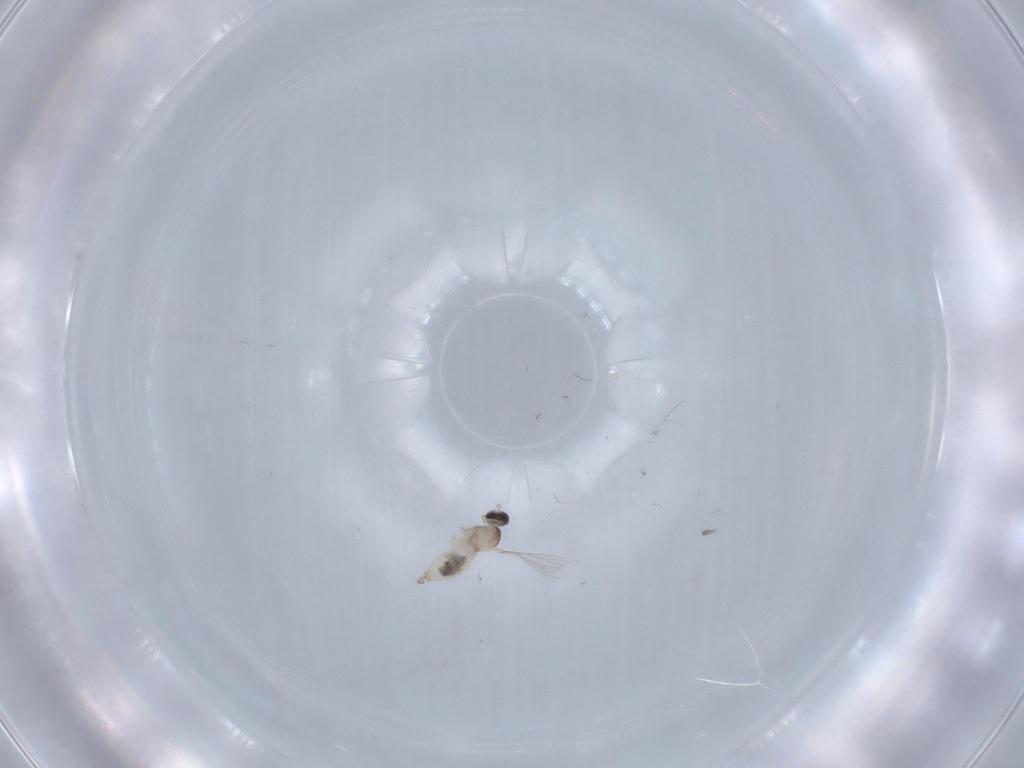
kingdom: Animalia
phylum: Arthropoda
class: Insecta
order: Diptera
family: Cecidomyiidae
